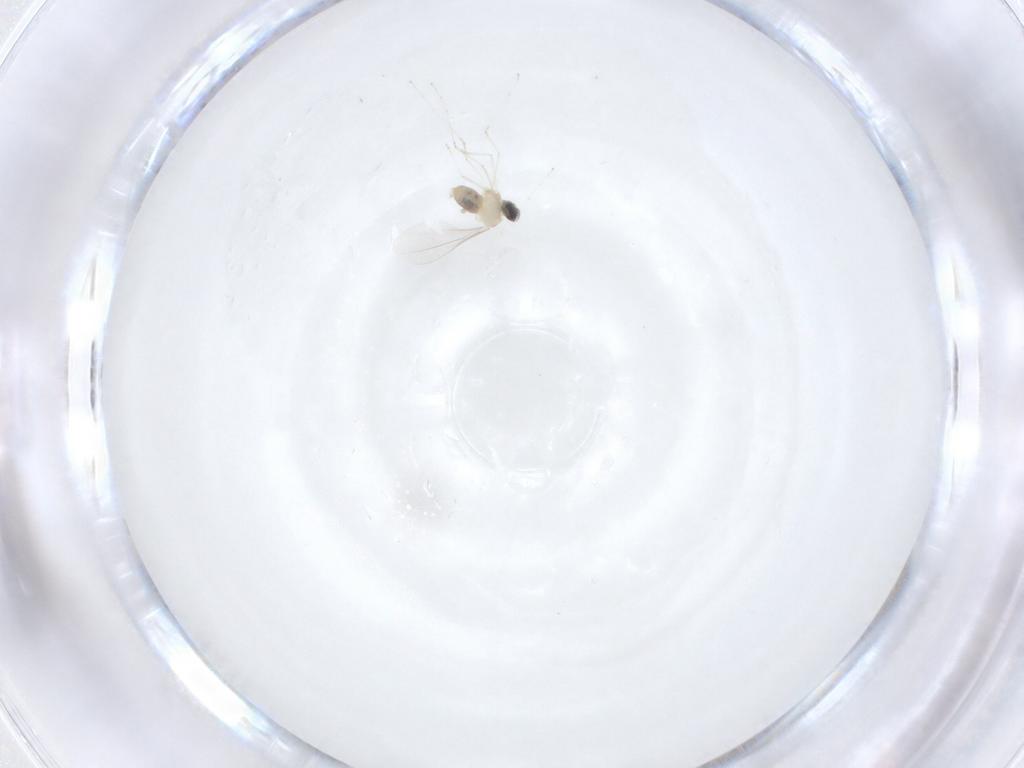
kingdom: Animalia
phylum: Arthropoda
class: Insecta
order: Diptera
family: Cecidomyiidae
